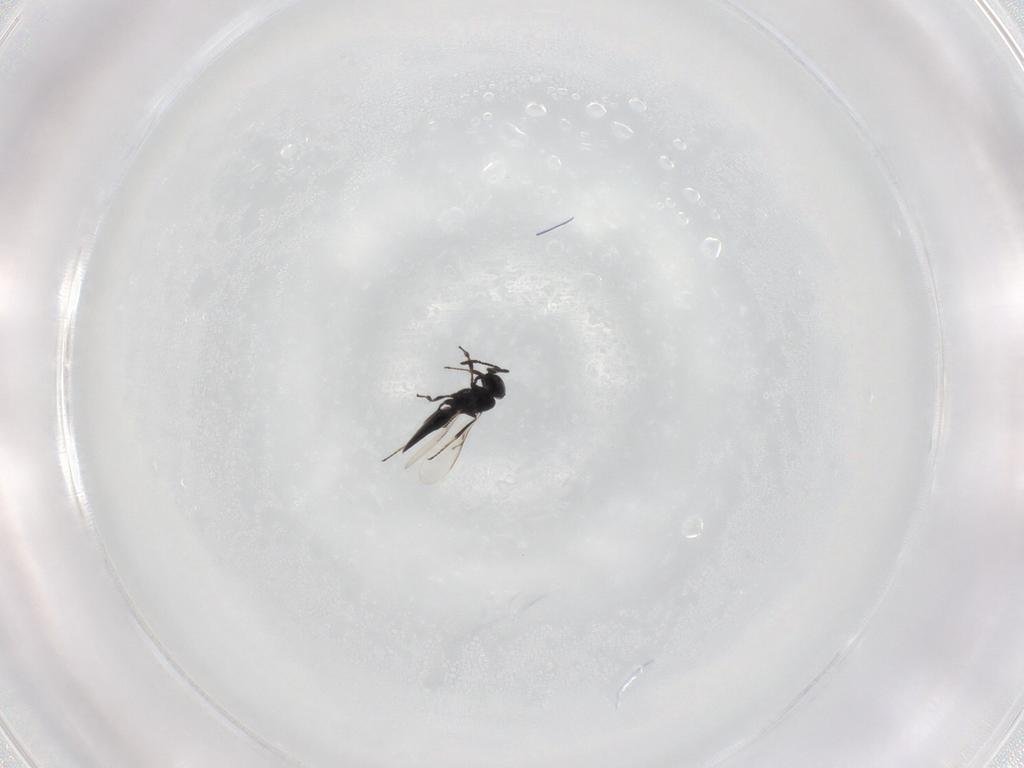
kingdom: Animalia
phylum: Arthropoda
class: Insecta
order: Hymenoptera
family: Scelionidae
